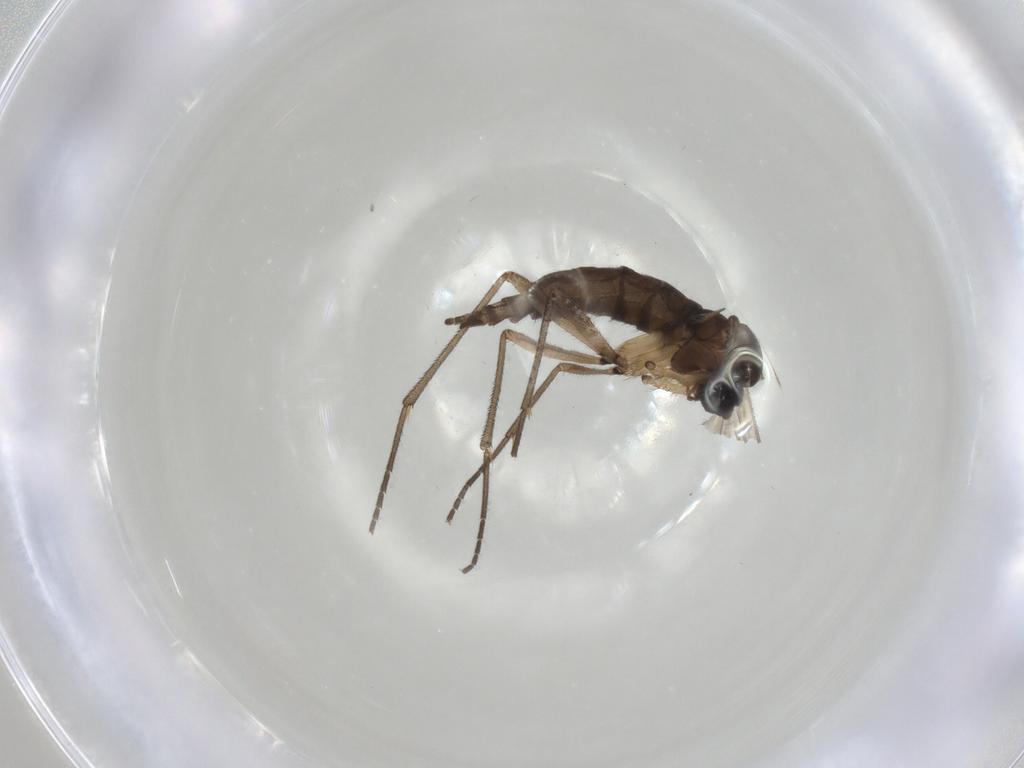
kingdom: Animalia
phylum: Arthropoda
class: Insecta
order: Diptera
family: Sciaridae
